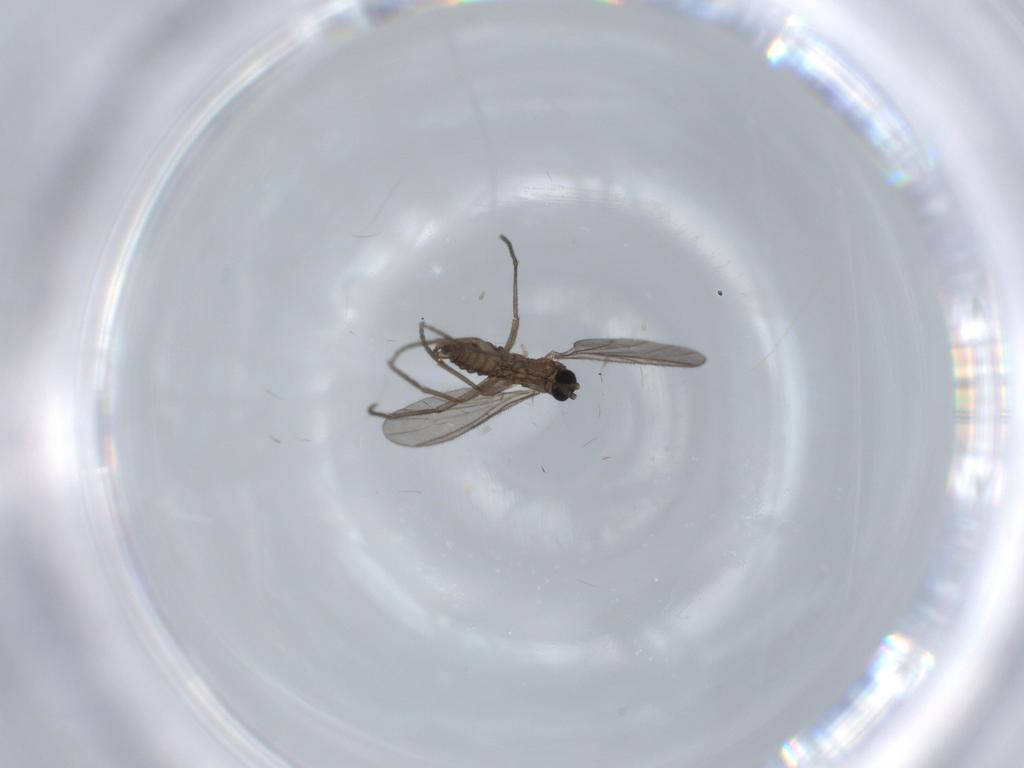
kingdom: Animalia
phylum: Arthropoda
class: Insecta
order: Diptera
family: Sciaridae
